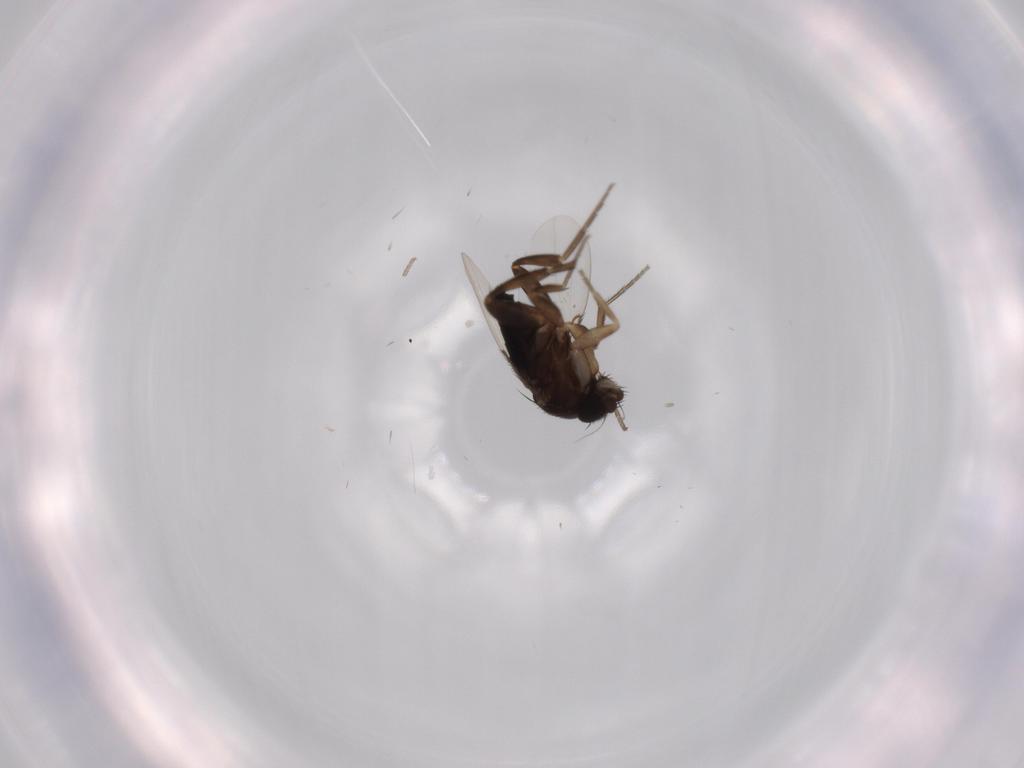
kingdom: Animalia
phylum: Arthropoda
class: Insecta
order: Diptera
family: Phoridae
